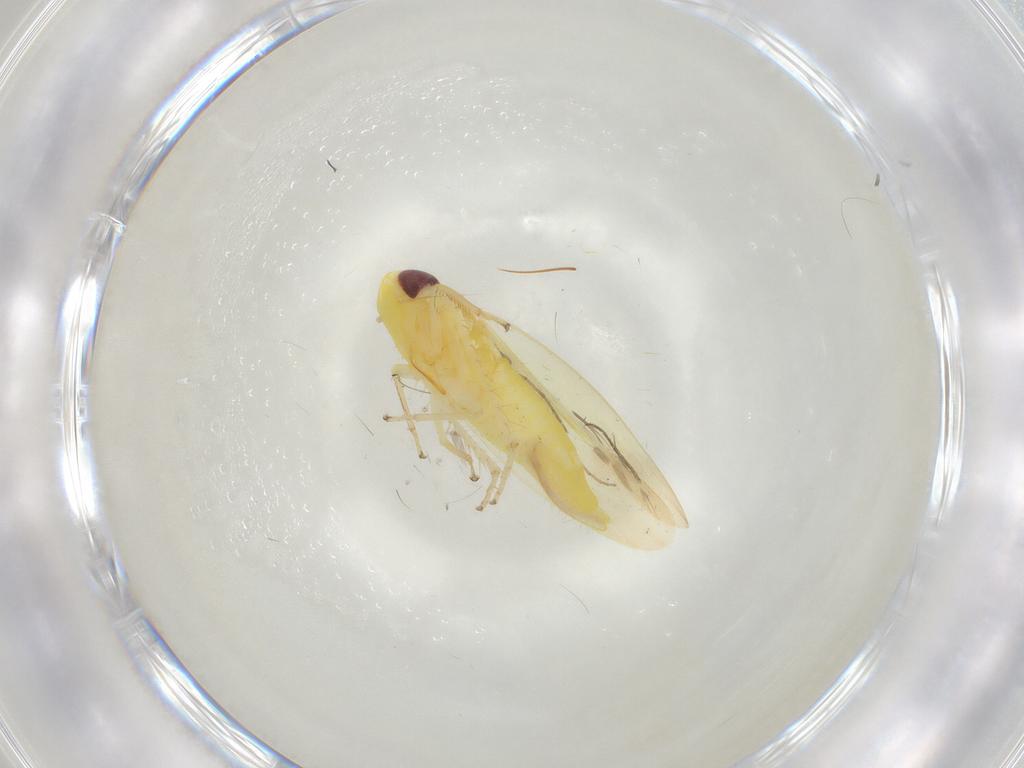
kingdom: Animalia
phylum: Arthropoda
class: Insecta
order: Hemiptera
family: Cicadellidae
